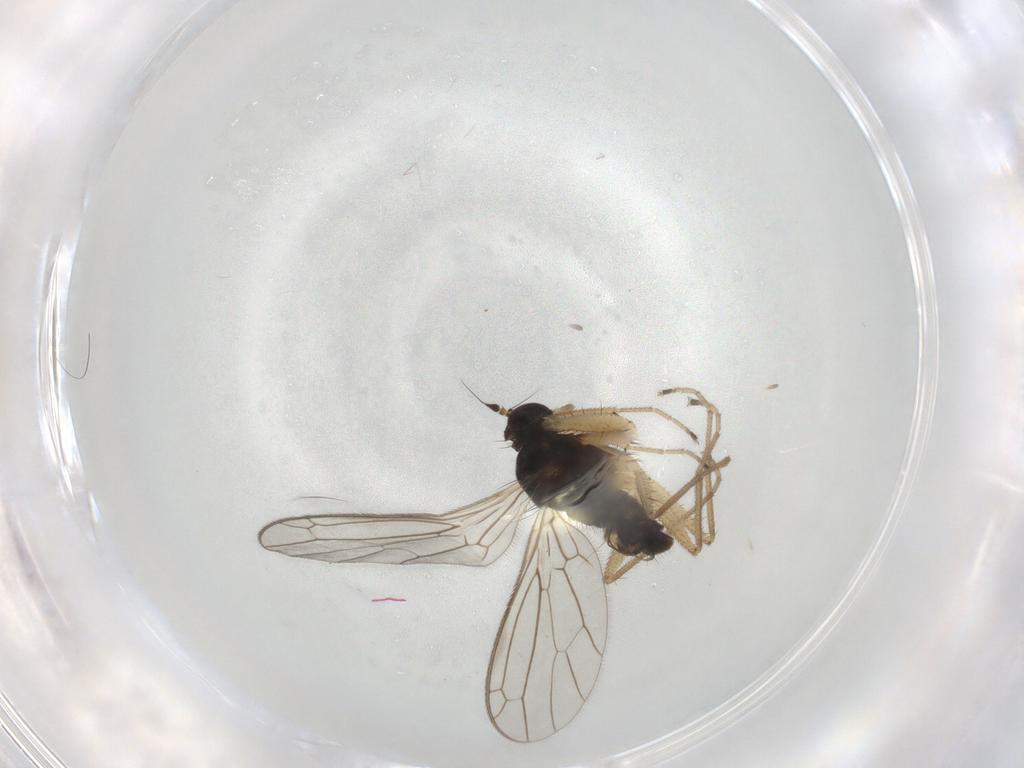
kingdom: Animalia
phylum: Arthropoda
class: Insecta
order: Diptera
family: Empididae
